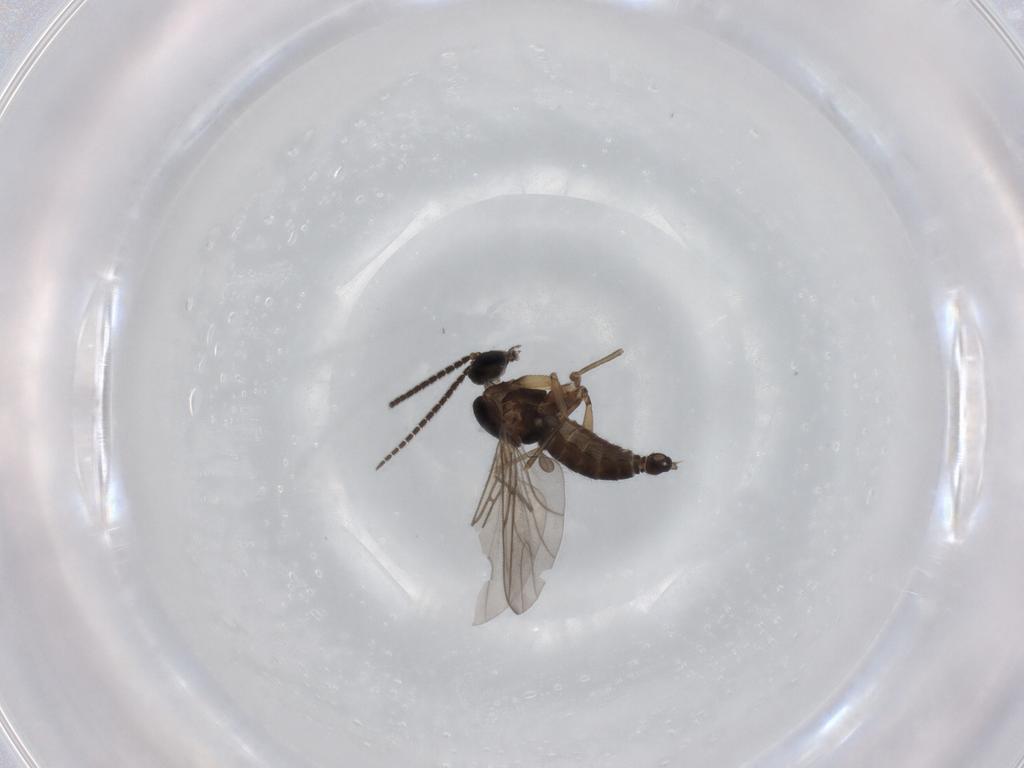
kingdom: Animalia
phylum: Arthropoda
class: Insecta
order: Diptera
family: Sciaridae
